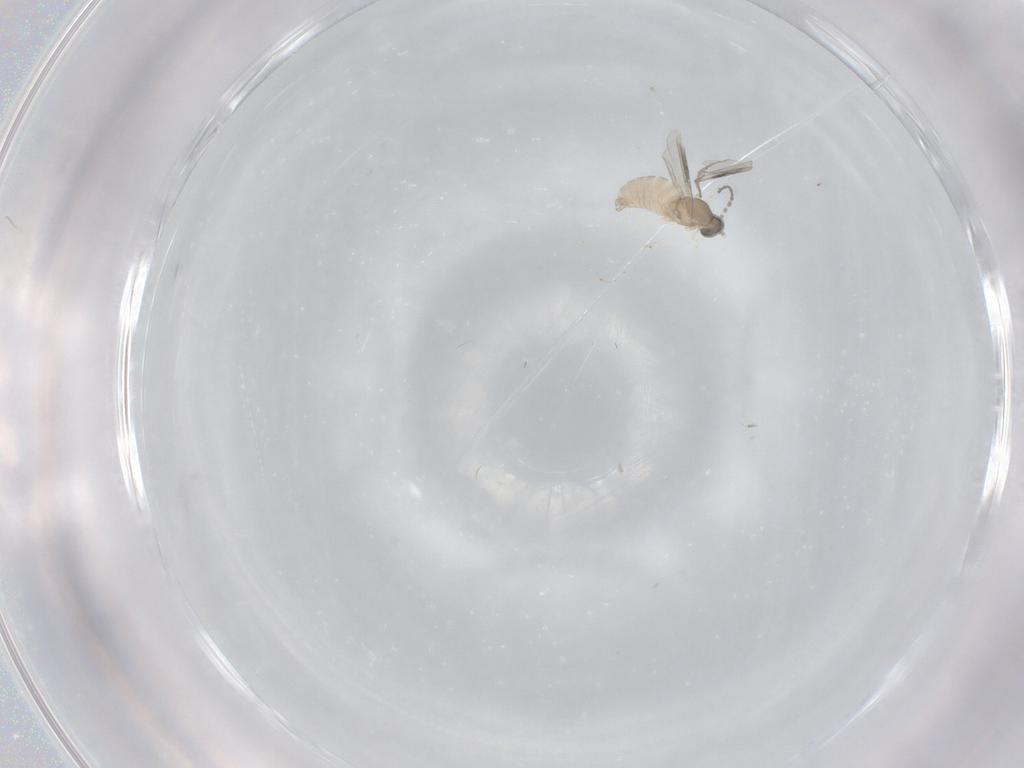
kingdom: Animalia
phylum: Arthropoda
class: Insecta
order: Diptera
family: Cecidomyiidae
